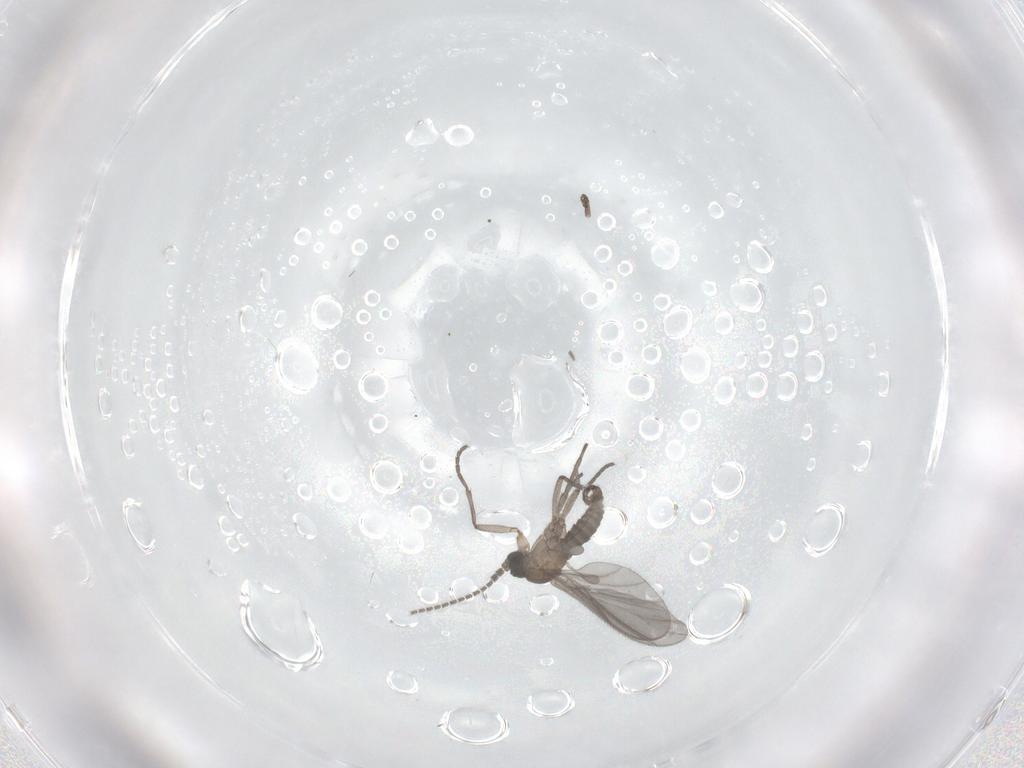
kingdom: Animalia
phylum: Arthropoda
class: Insecta
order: Diptera
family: Sciaridae
